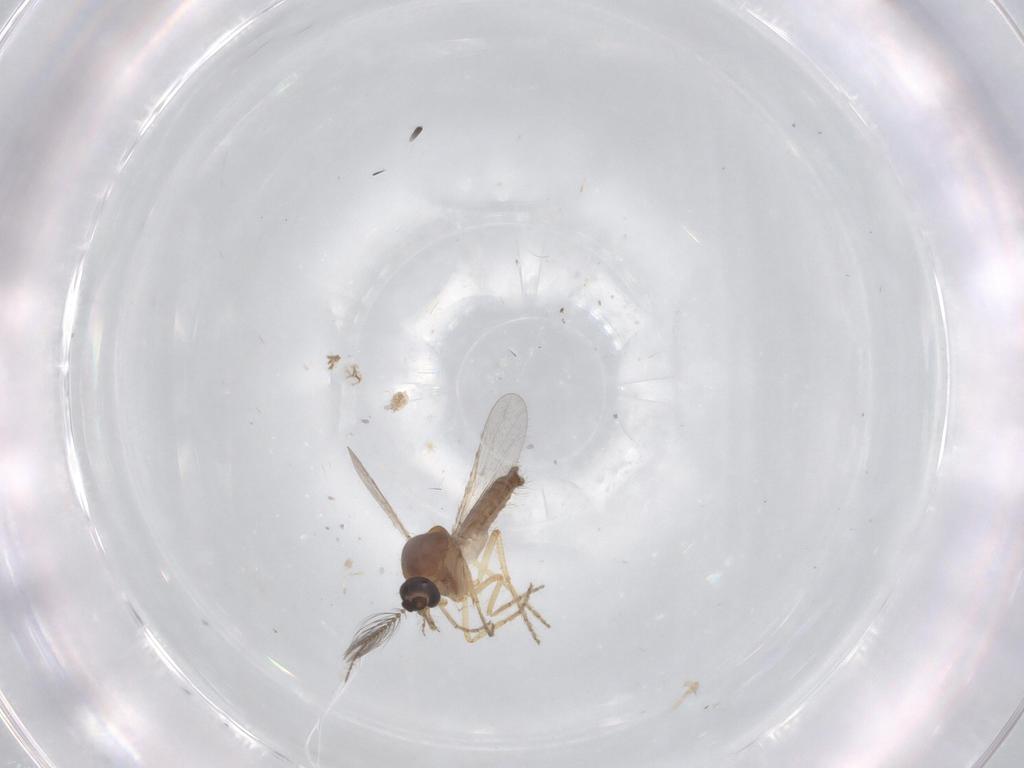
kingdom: Animalia
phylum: Arthropoda
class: Insecta
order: Diptera
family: Ceratopogonidae
